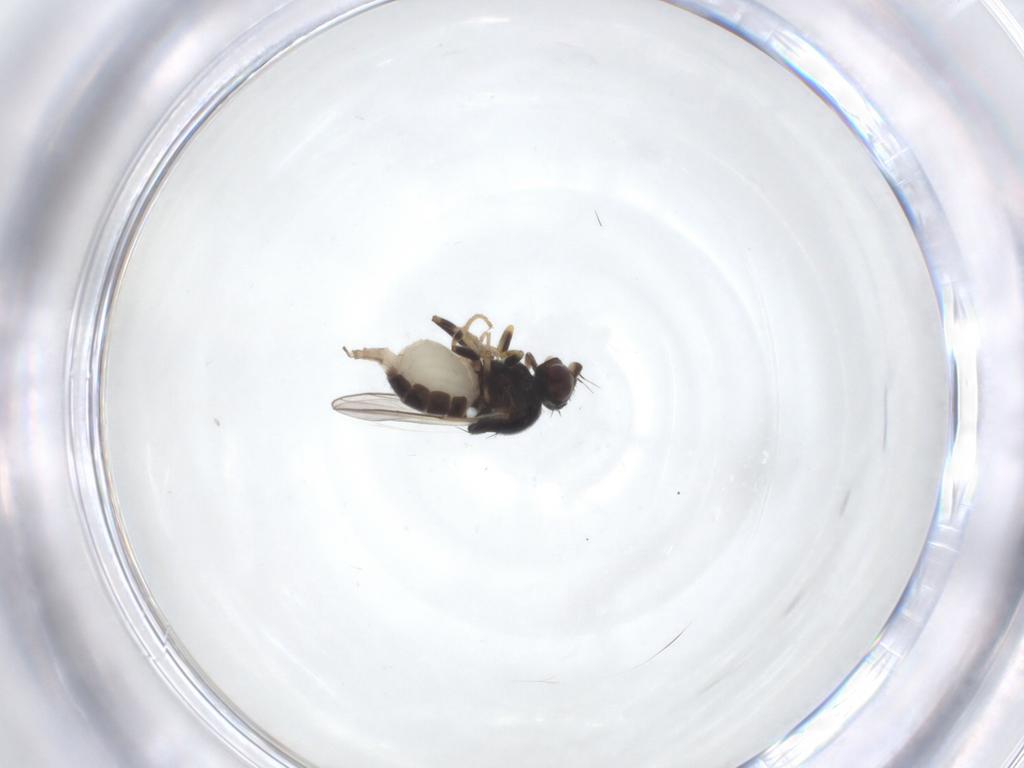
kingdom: Animalia
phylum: Arthropoda
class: Insecta
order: Diptera
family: Chloropidae
